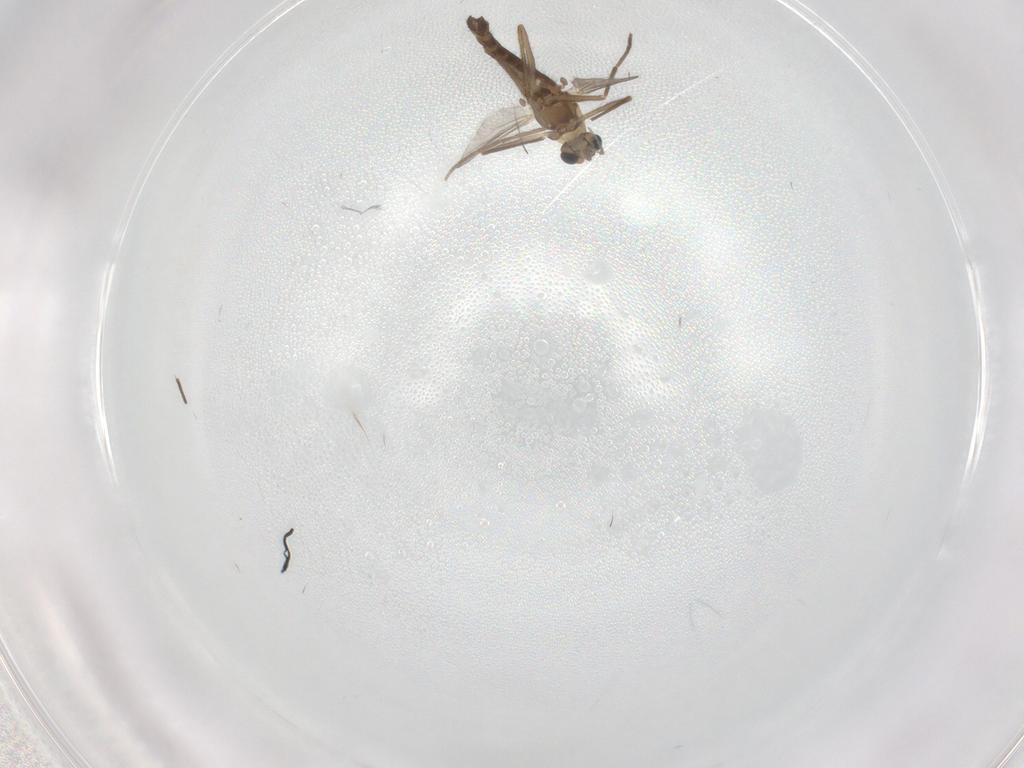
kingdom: Animalia
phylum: Arthropoda
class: Insecta
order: Diptera
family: Chironomidae
